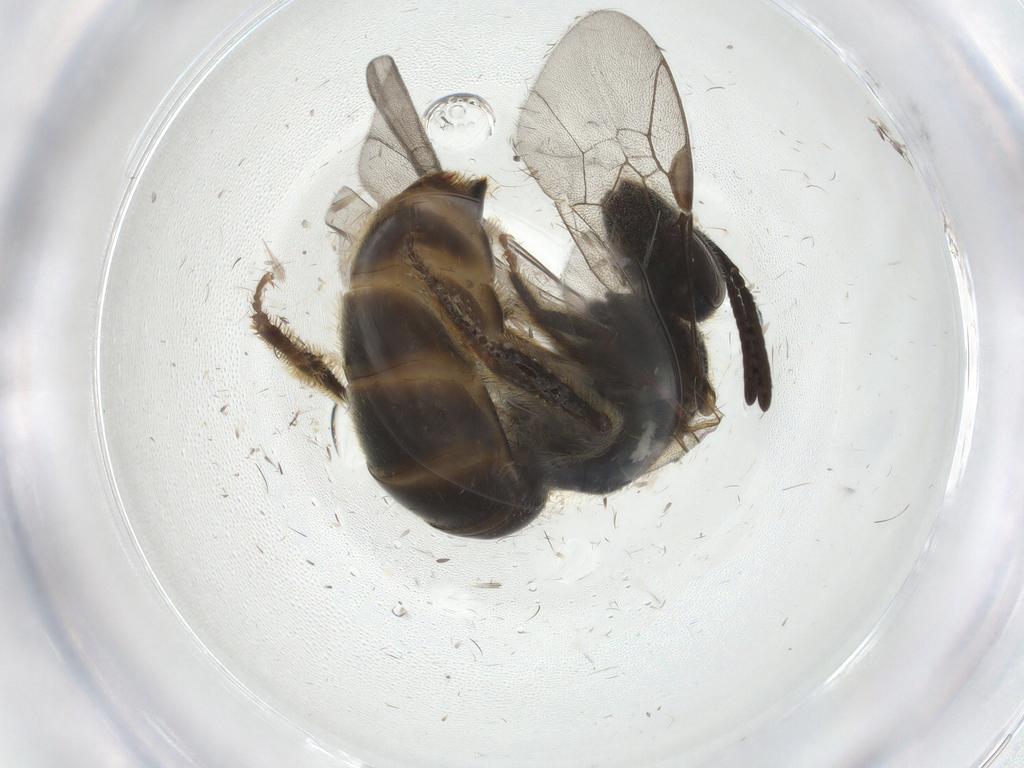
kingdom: Animalia
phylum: Arthropoda
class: Insecta
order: Hymenoptera
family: Halictidae
